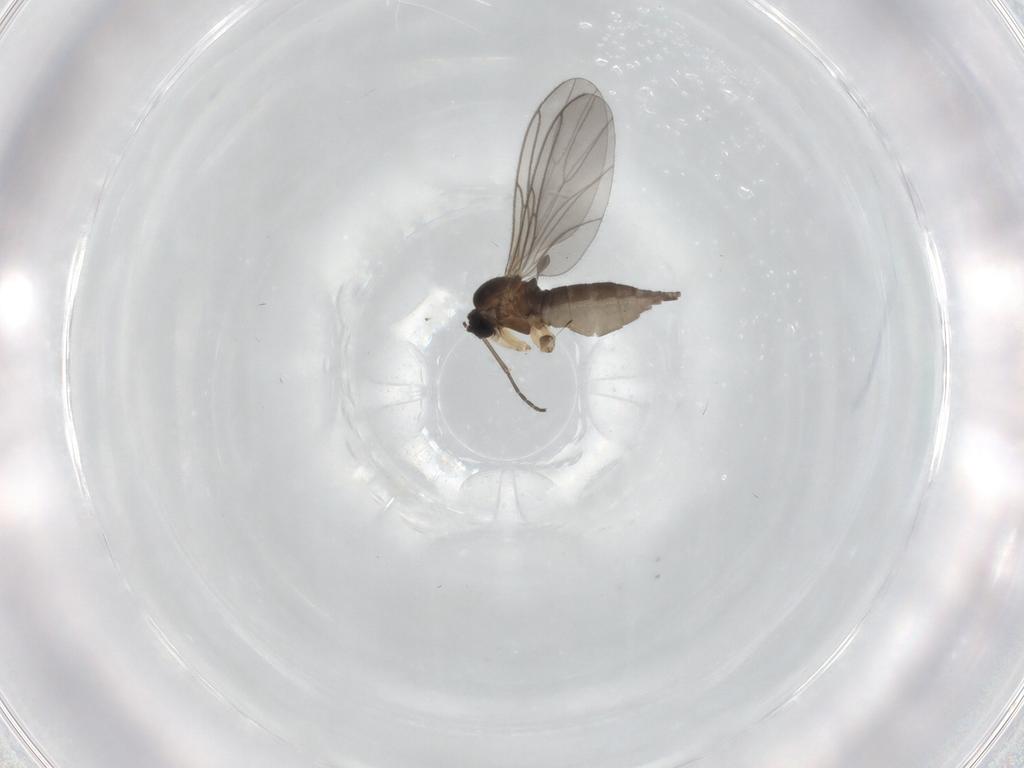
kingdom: Animalia
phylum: Arthropoda
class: Insecta
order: Diptera
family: Sciaridae
